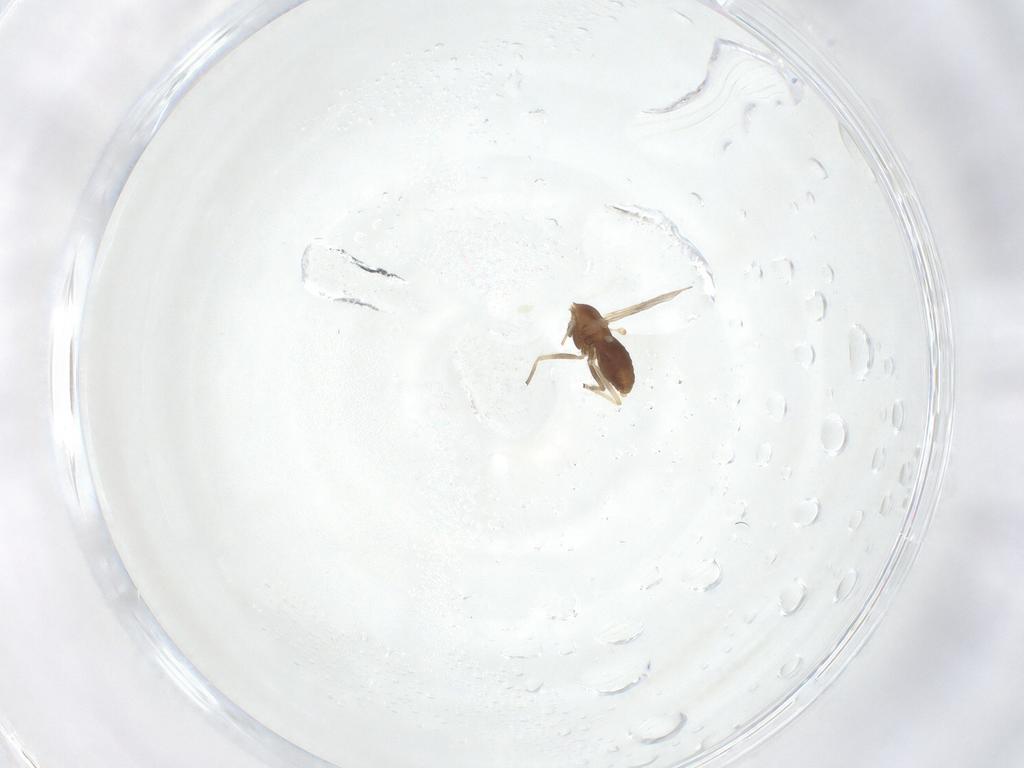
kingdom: Animalia
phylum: Arthropoda
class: Insecta
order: Diptera
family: Chironomidae
